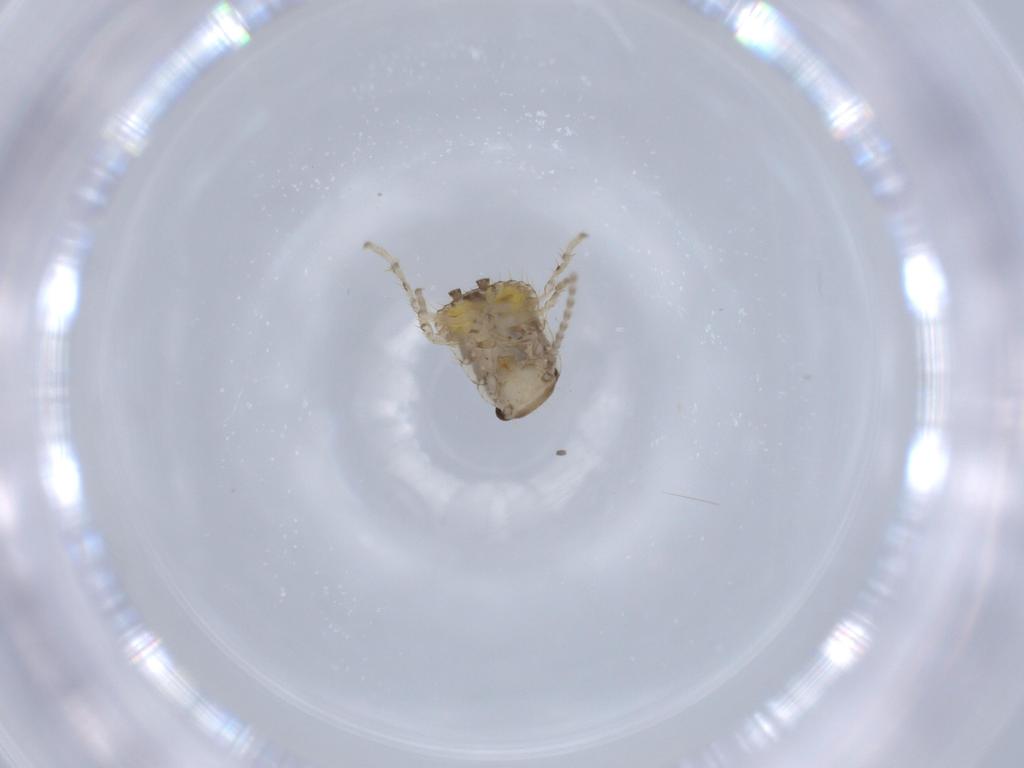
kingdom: Animalia
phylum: Arthropoda
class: Insecta
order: Blattodea
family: Ectobiidae
